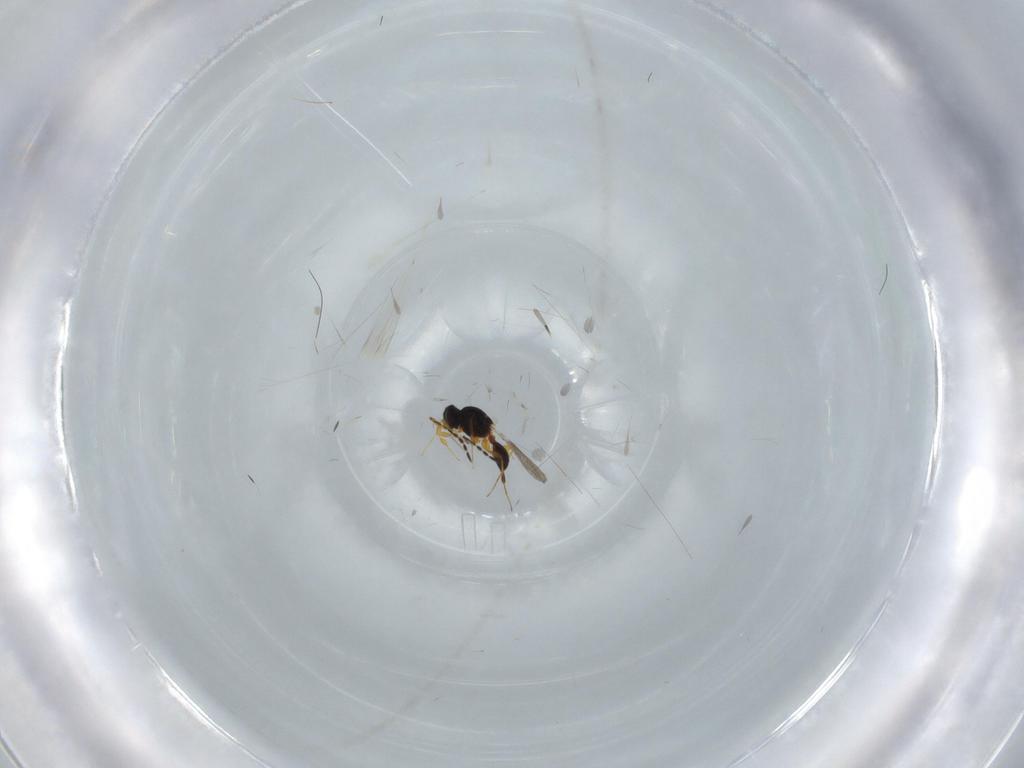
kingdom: Animalia
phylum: Arthropoda
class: Insecta
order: Hymenoptera
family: Platygastridae
